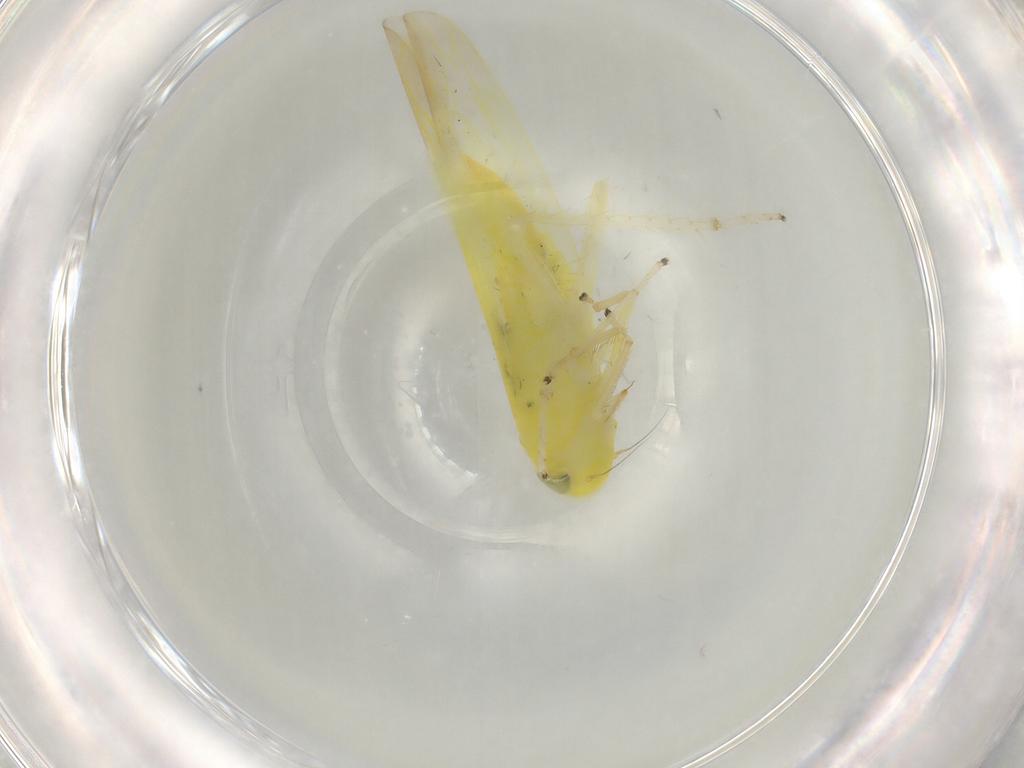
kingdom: Animalia
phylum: Arthropoda
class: Insecta
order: Hemiptera
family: Cicadellidae
